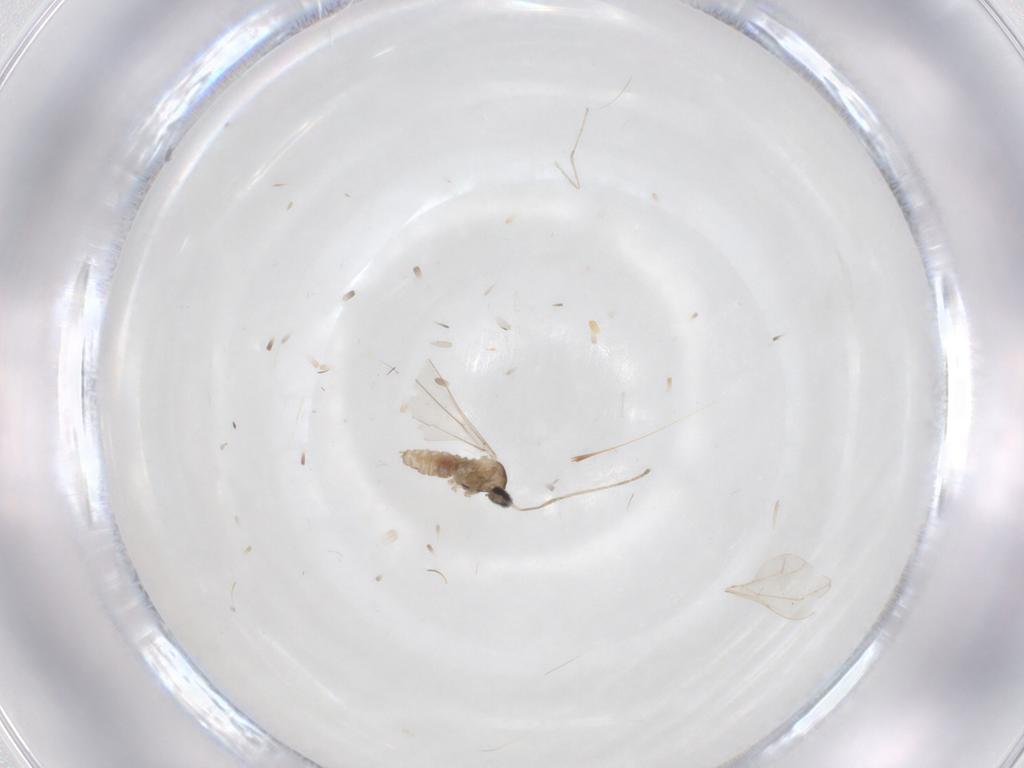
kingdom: Animalia
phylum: Arthropoda
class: Insecta
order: Diptera
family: Cecidomyiidae
